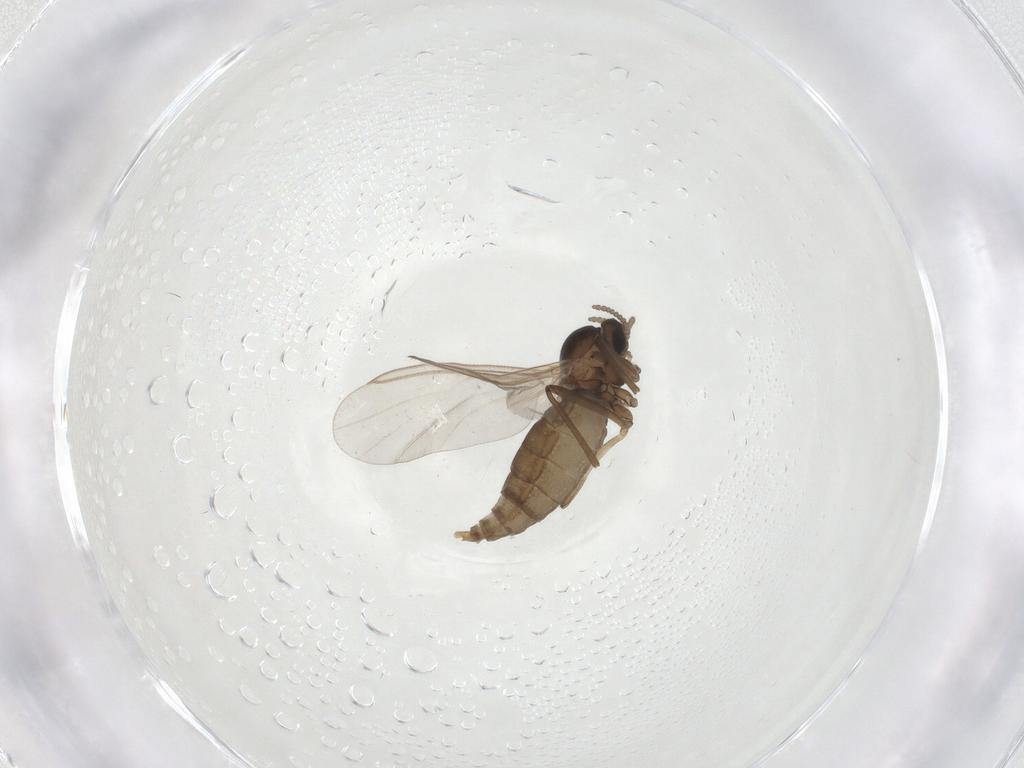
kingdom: Animalia
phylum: Arthropoda
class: Insecta
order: Diptera
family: Cecidomyiidae
